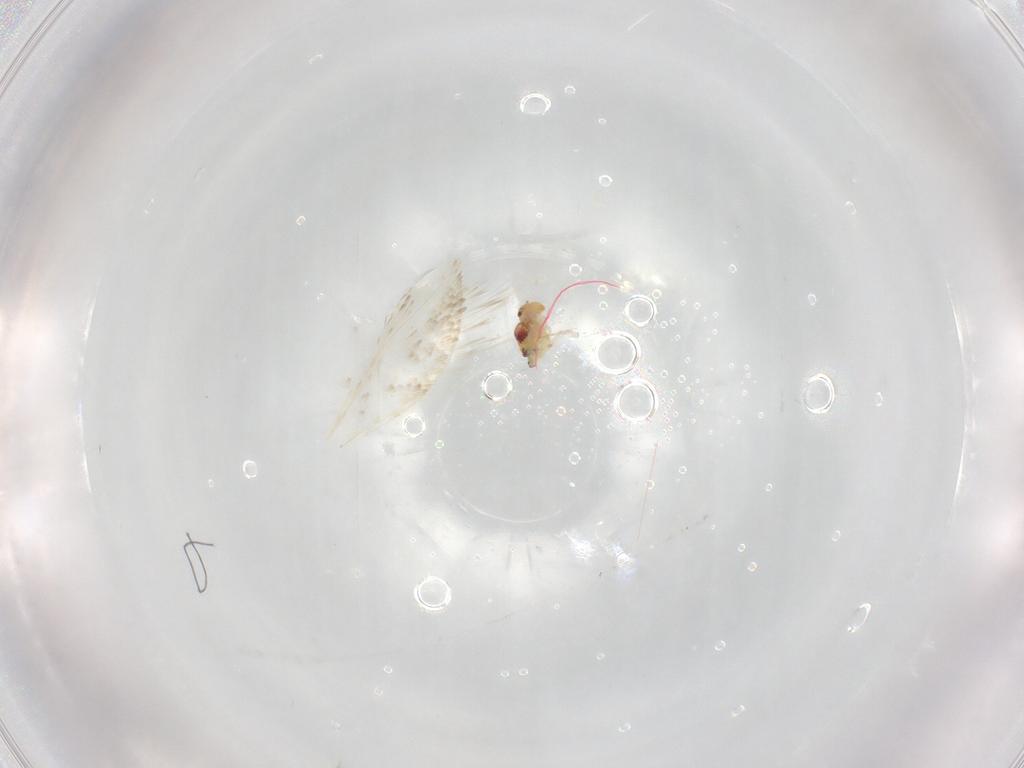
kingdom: Animalia
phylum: Arthropoda
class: Collembola
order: Symphypleona
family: Bourletiellidae
